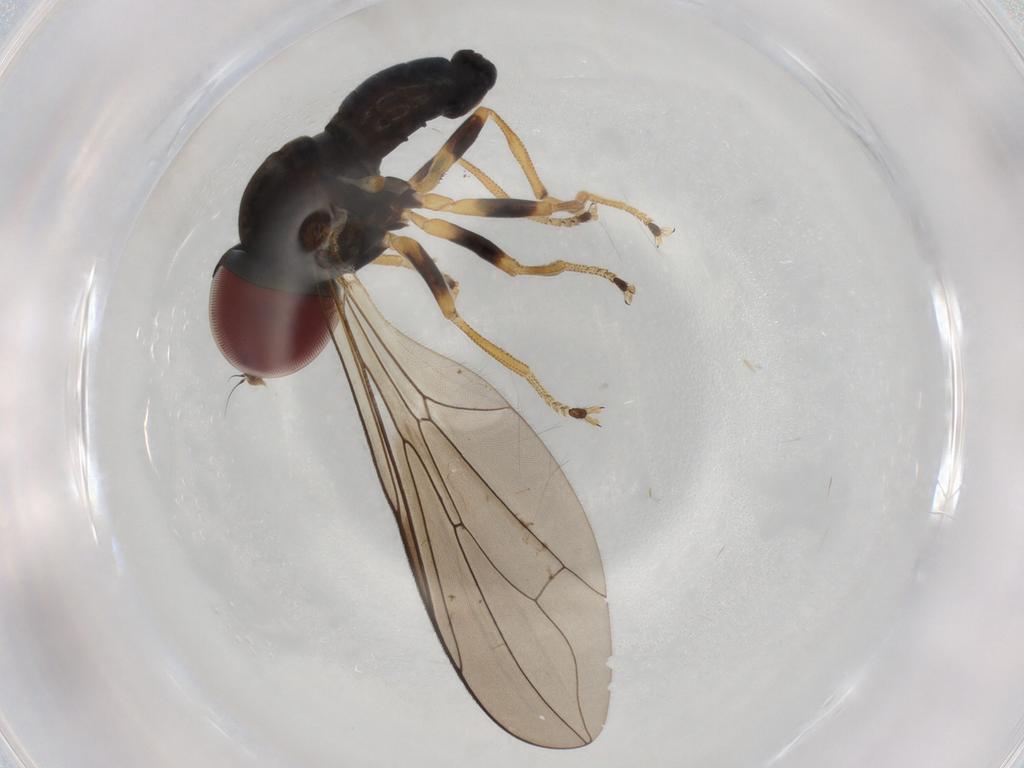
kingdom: Animalia
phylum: Arthropoda
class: Insecta
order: Diptera
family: Pipunculidae
